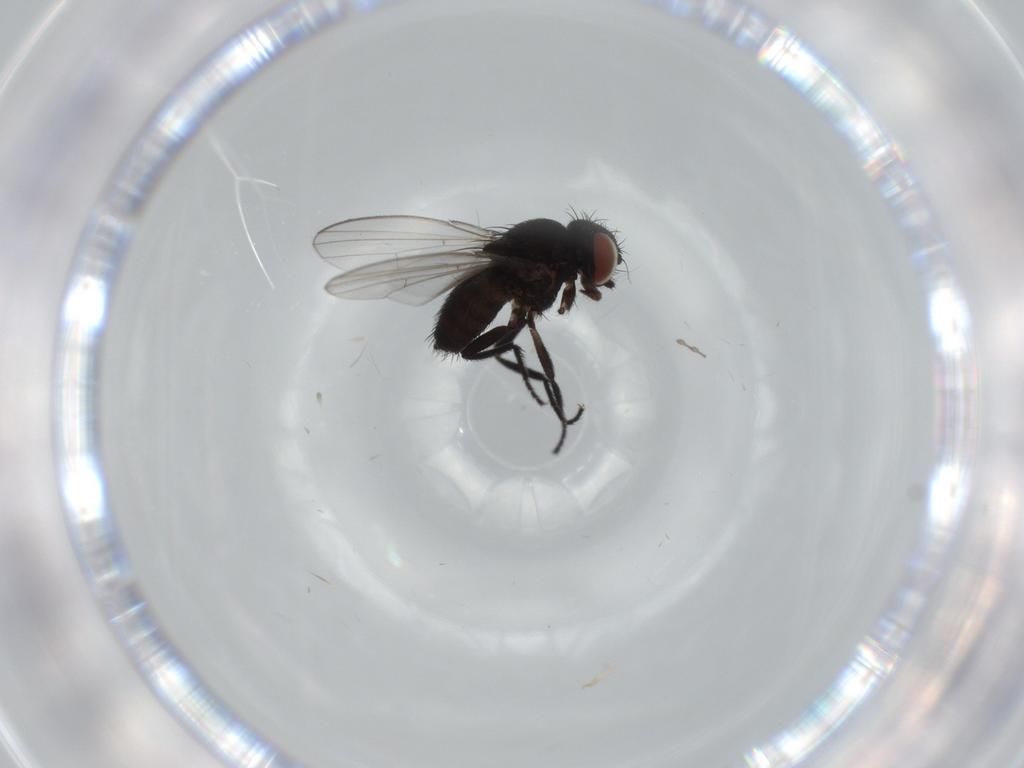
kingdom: Animalia
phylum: Arthropoda
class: Insecta
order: Diptera
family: Milichiidae
